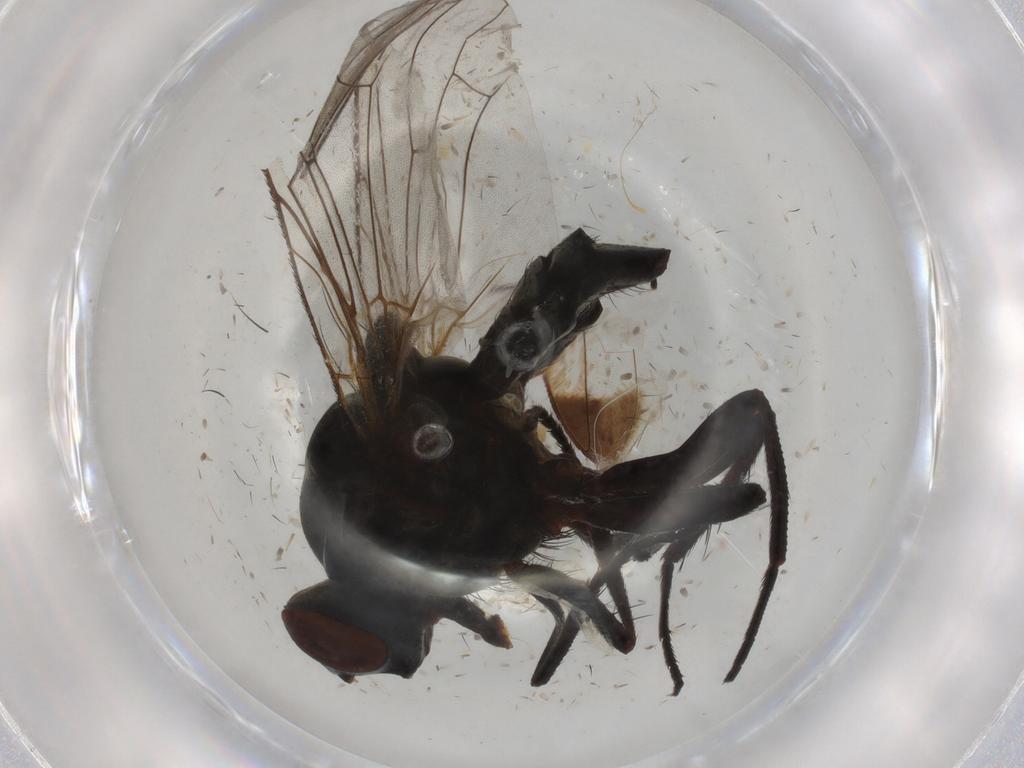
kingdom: Animalia
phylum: Arthropoda
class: Insecta
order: Diptera
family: Anthomyiidae
